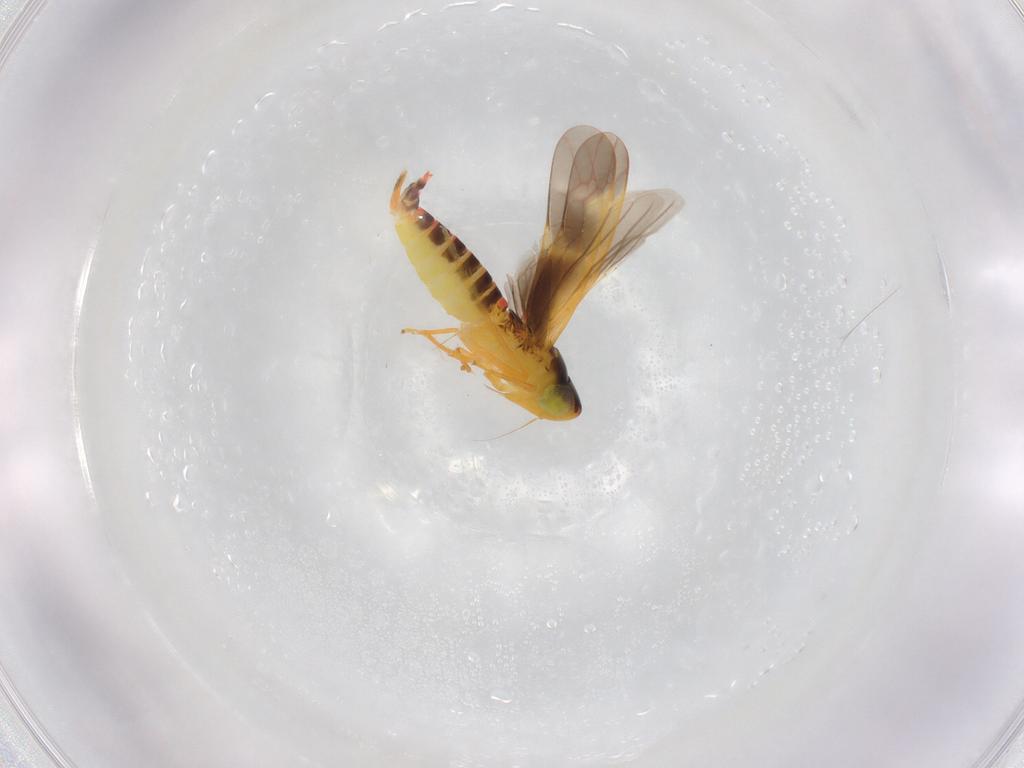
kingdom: Animalia
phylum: Arthropoda
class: Insecta
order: Hemiptera
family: Cicadellidae
